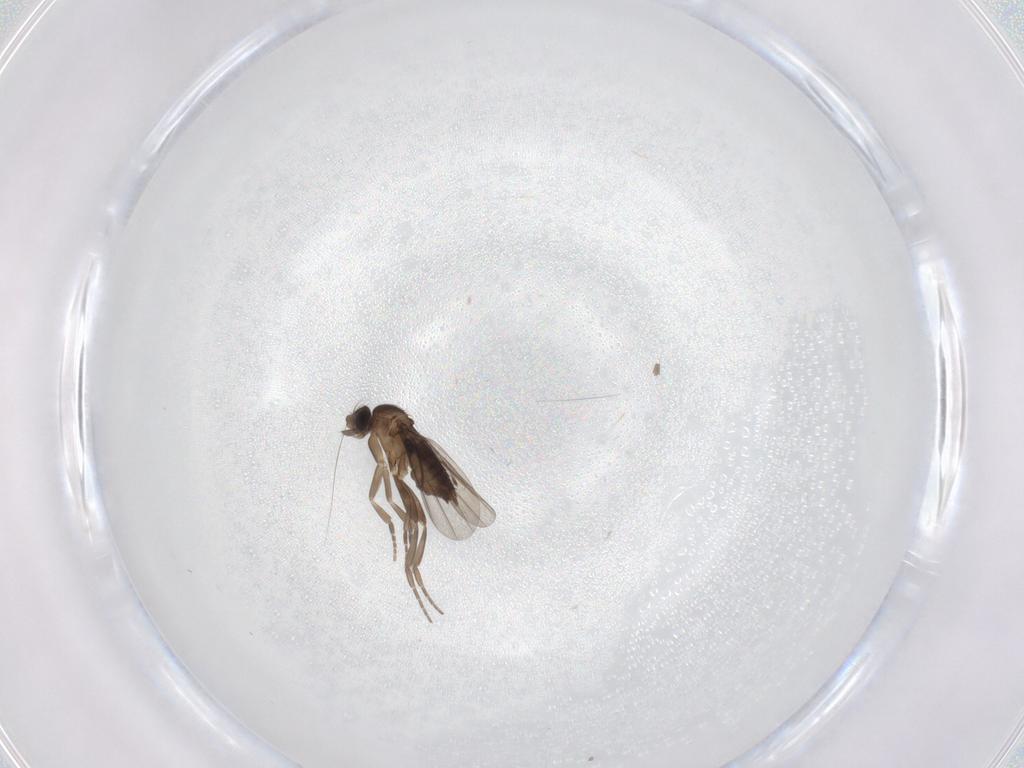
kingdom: Animalia
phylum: Arthropoda
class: Insecta
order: Diptera
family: Phoridae
